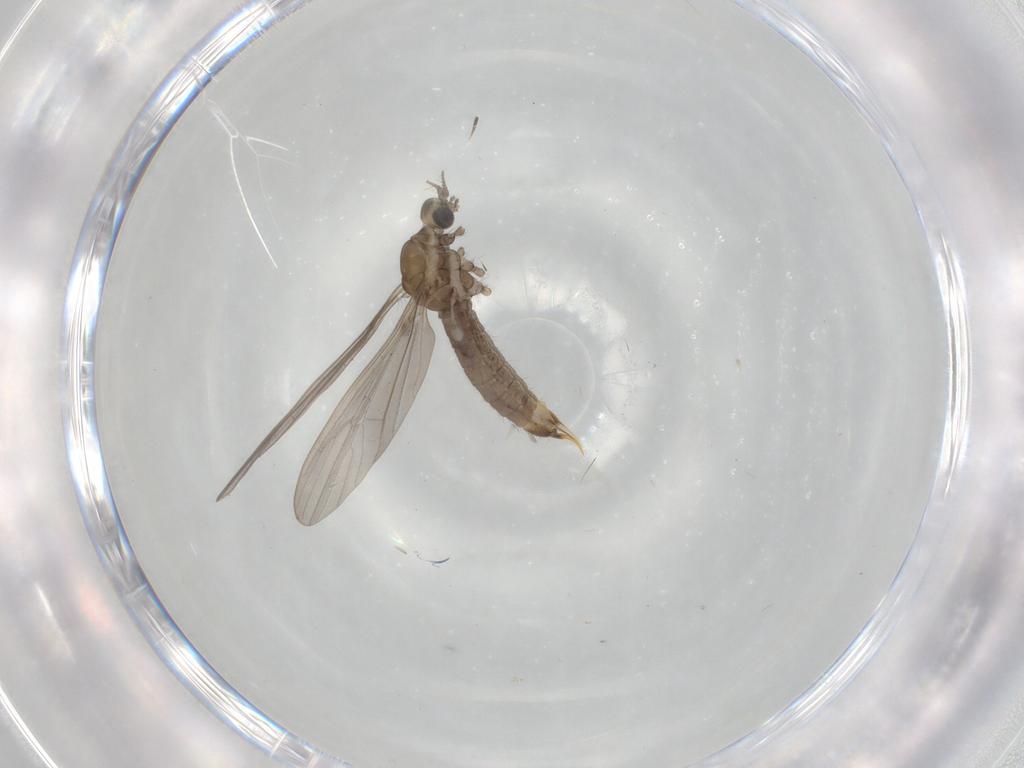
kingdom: Animalia
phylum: Arthropoda
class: Insecta
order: Diptera
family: Limoniidae
